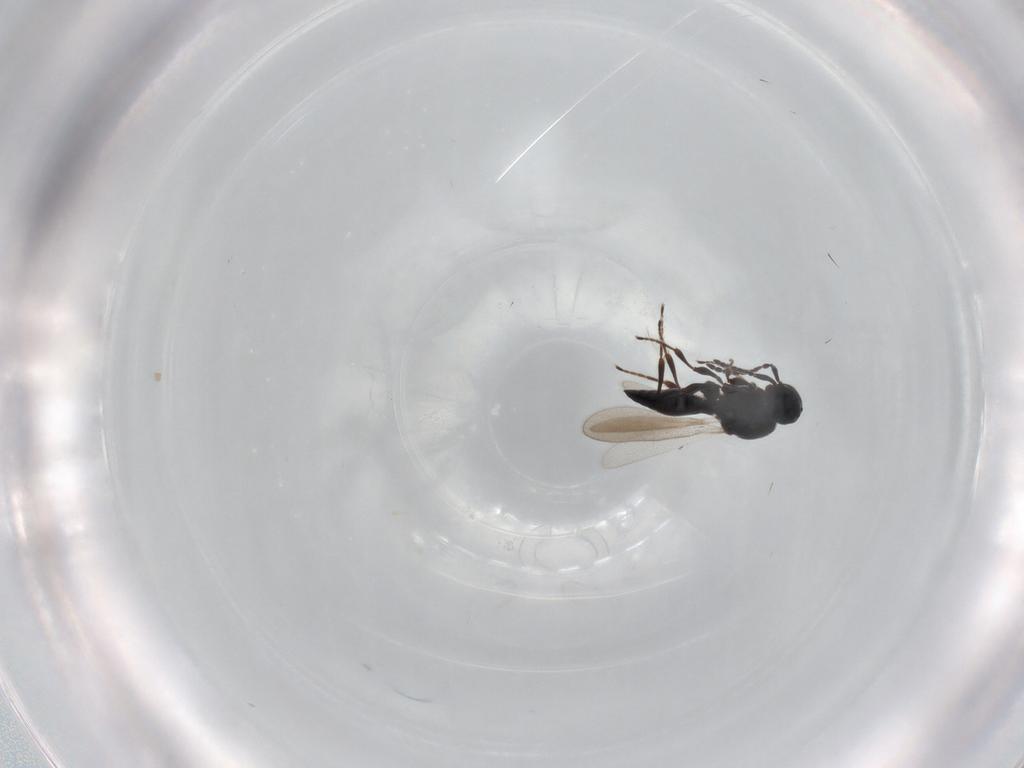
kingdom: Animalia
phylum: Arthropoda
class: Insecta
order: Hymenoptera
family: Platygastridae
